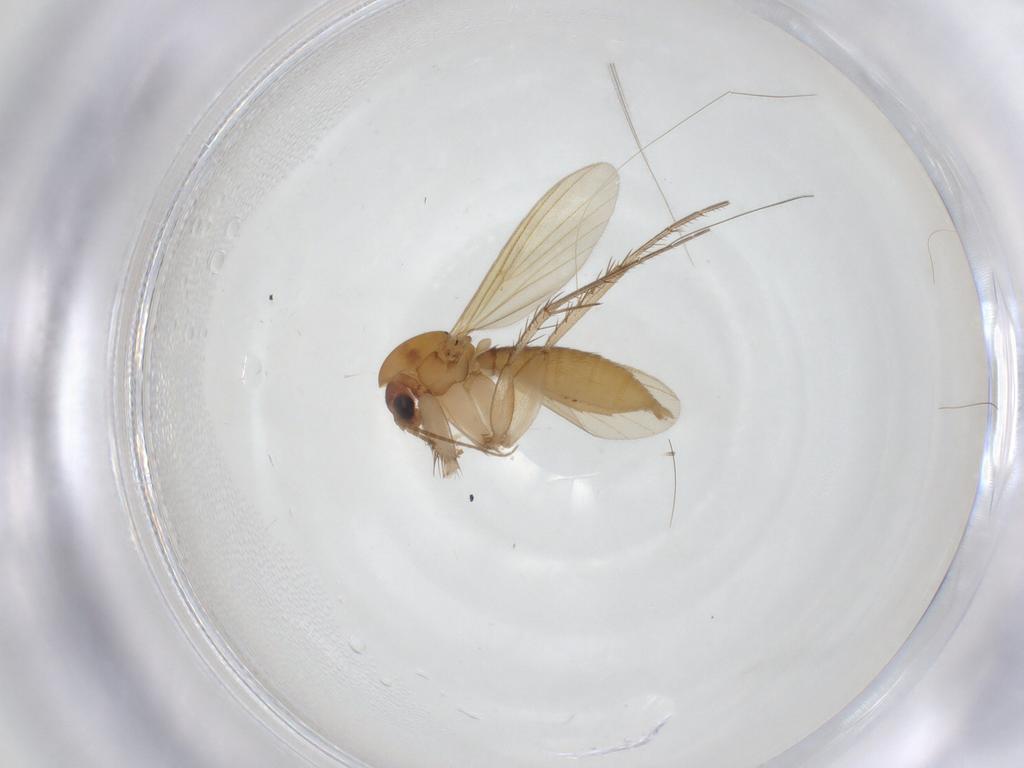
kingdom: Animalia
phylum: Arthropoda
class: Insecta
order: Diptera
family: Mycetophilidae
